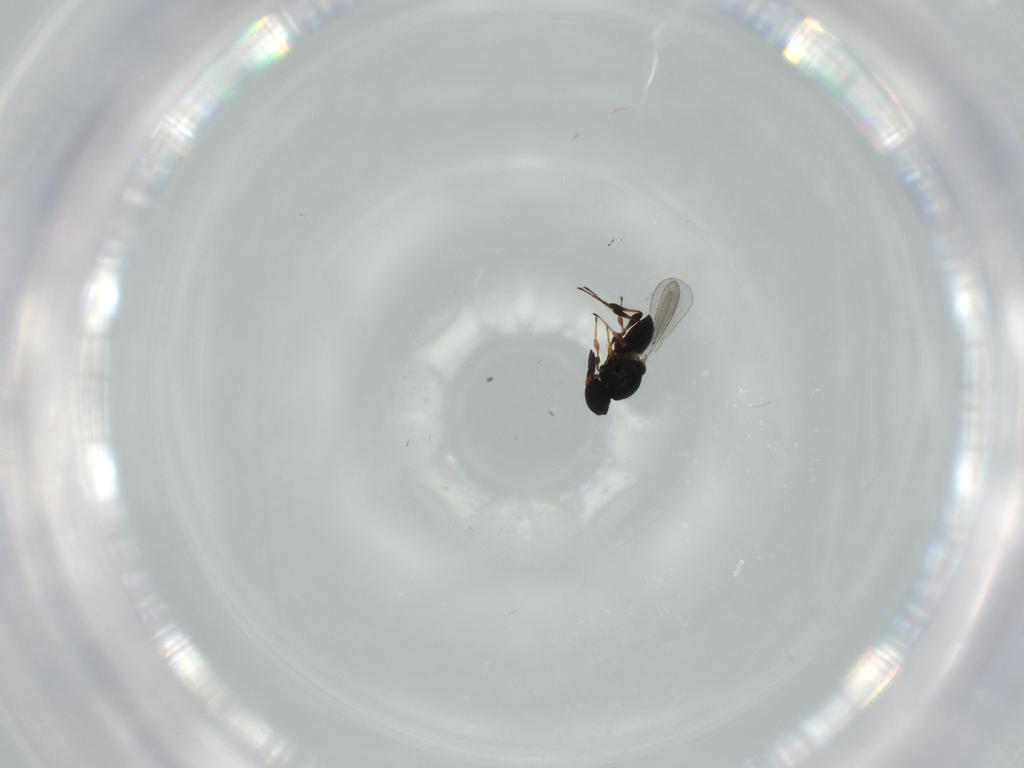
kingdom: Animalia
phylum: Arthropoda
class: Insecta
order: Hymenoptera
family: Platygastridae
